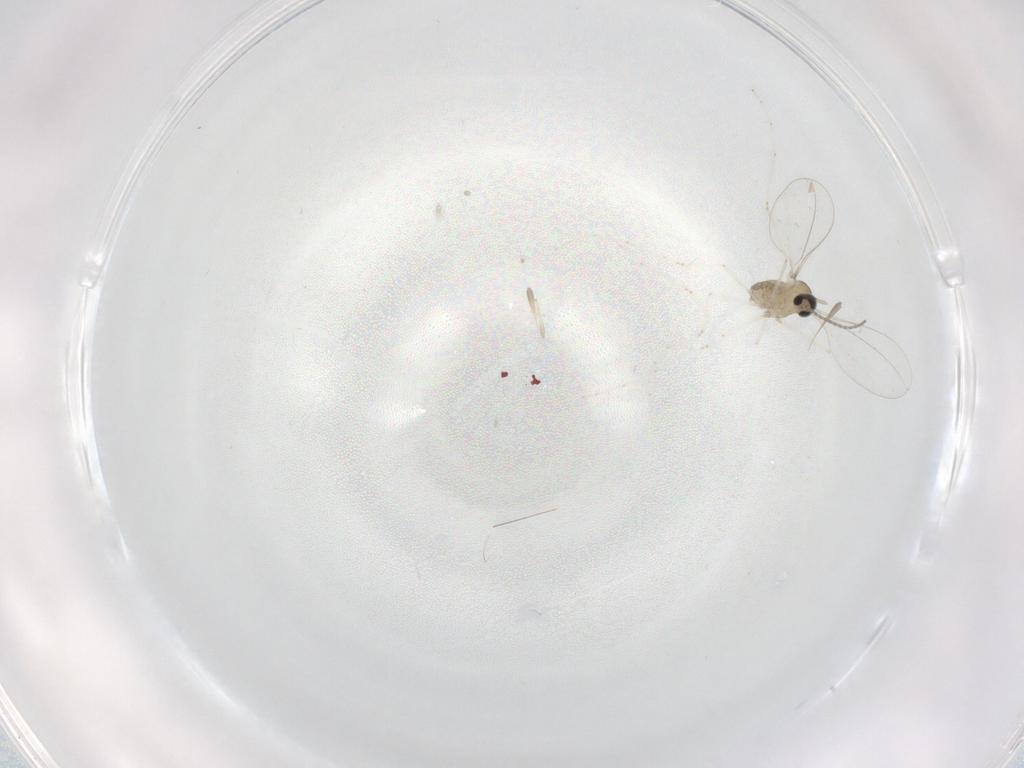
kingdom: Animalia
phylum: Arthropoda
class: Insecta
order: Diptera
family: Cecidomyiidae
